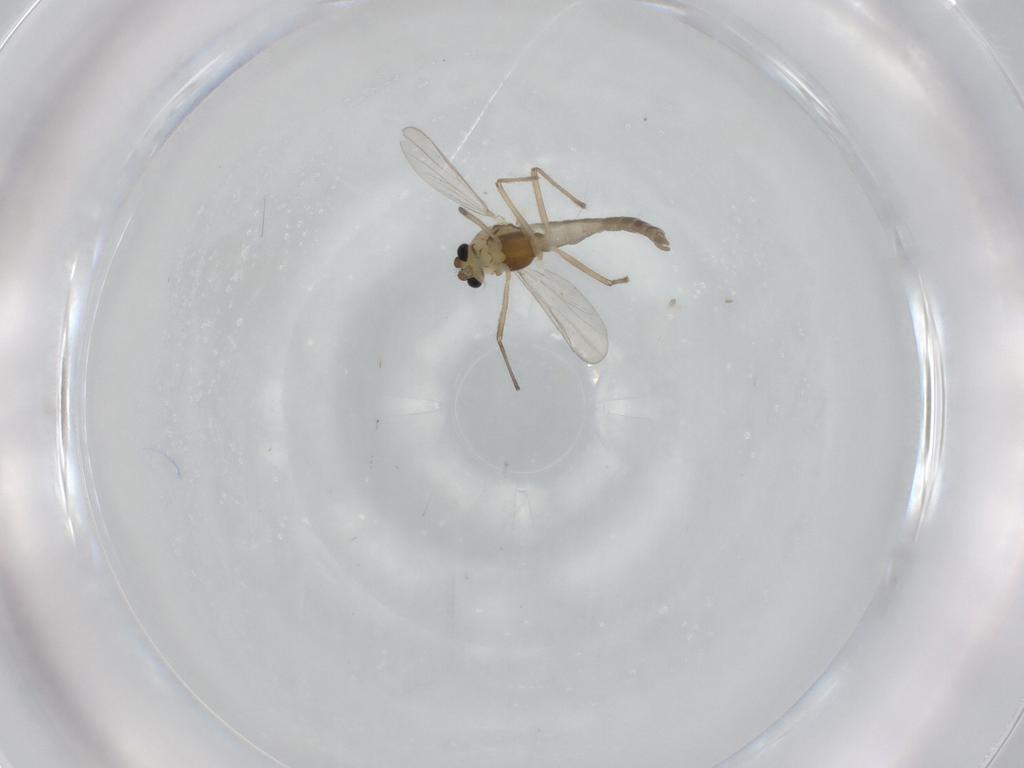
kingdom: Animalia
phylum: Arthropoda
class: Insecta
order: Diptera
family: Chironomidae
